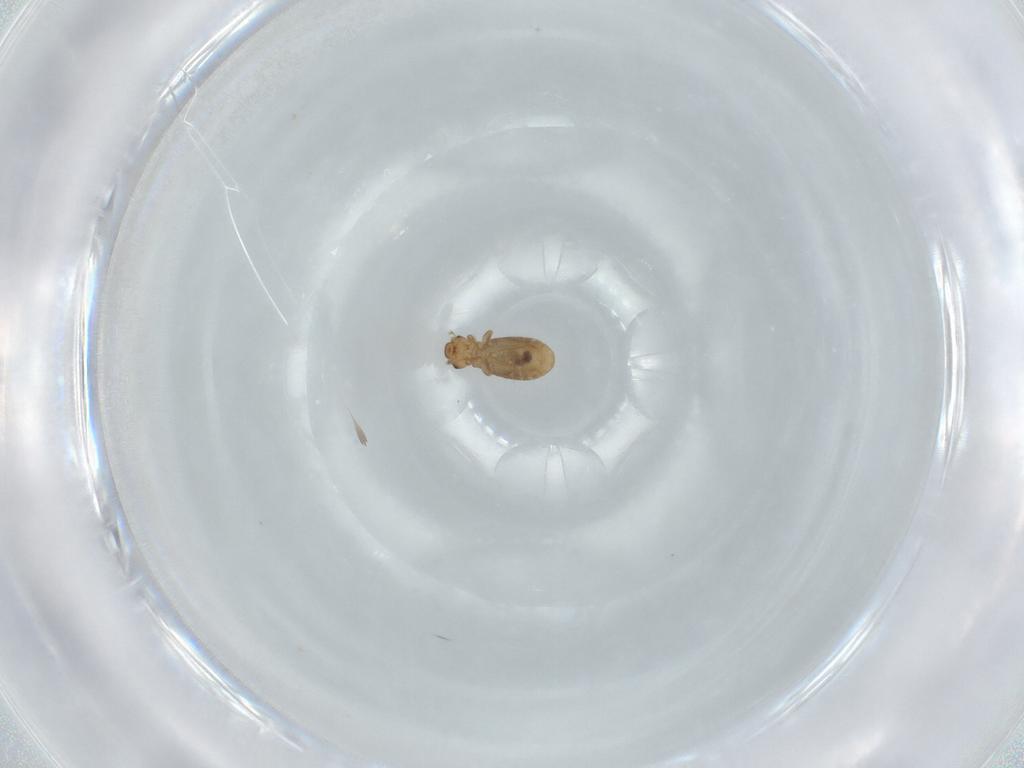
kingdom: Animalia
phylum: Arthropoda
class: Insecta
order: Psocodea
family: Liposcelididae
